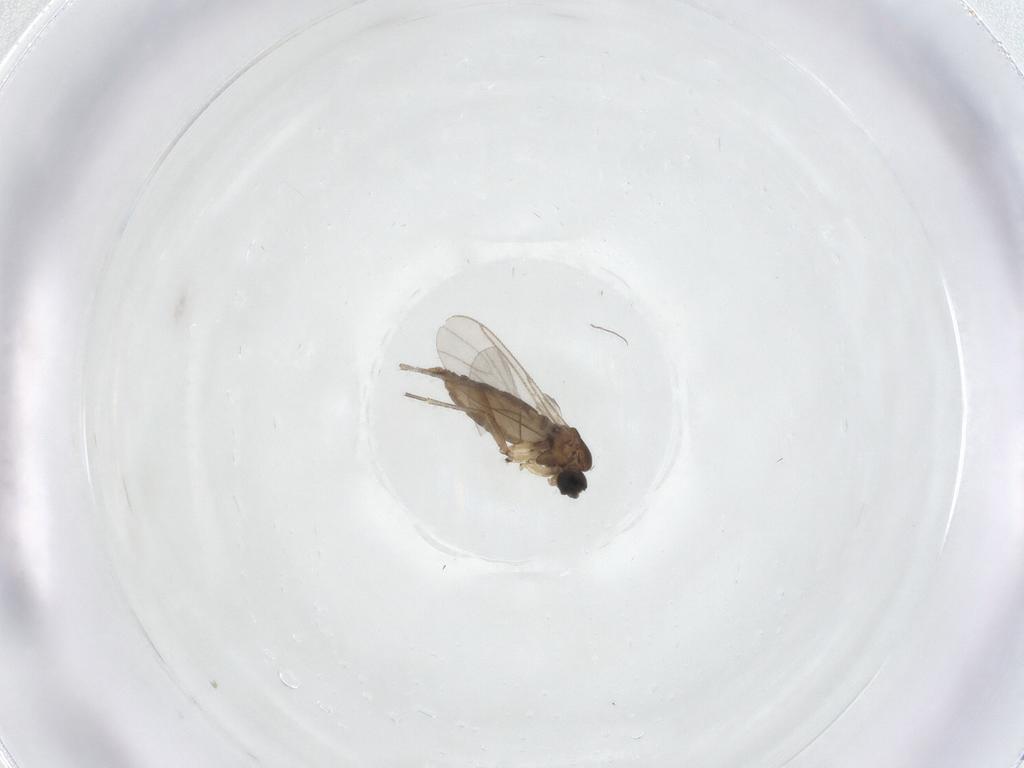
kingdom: Animalia
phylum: Arthropoda
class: Insecta
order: Diptera
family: Sciaridae
